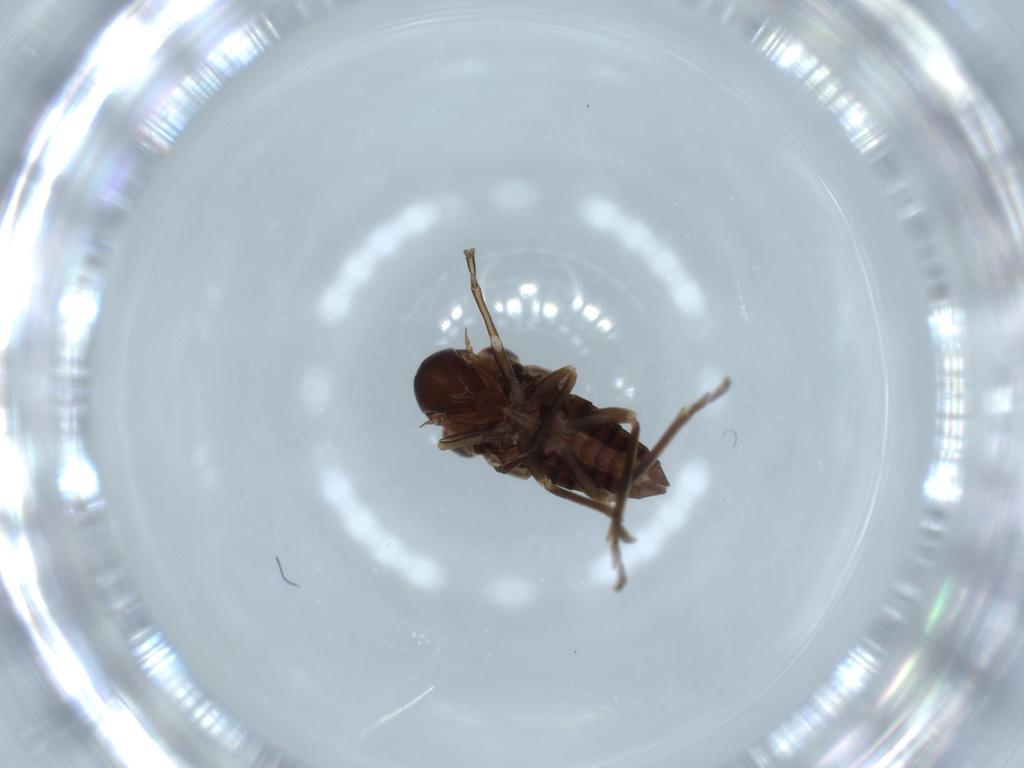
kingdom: Animalia
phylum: Arthropoda
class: Insecta
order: Hemiptera
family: Cicadellidae
